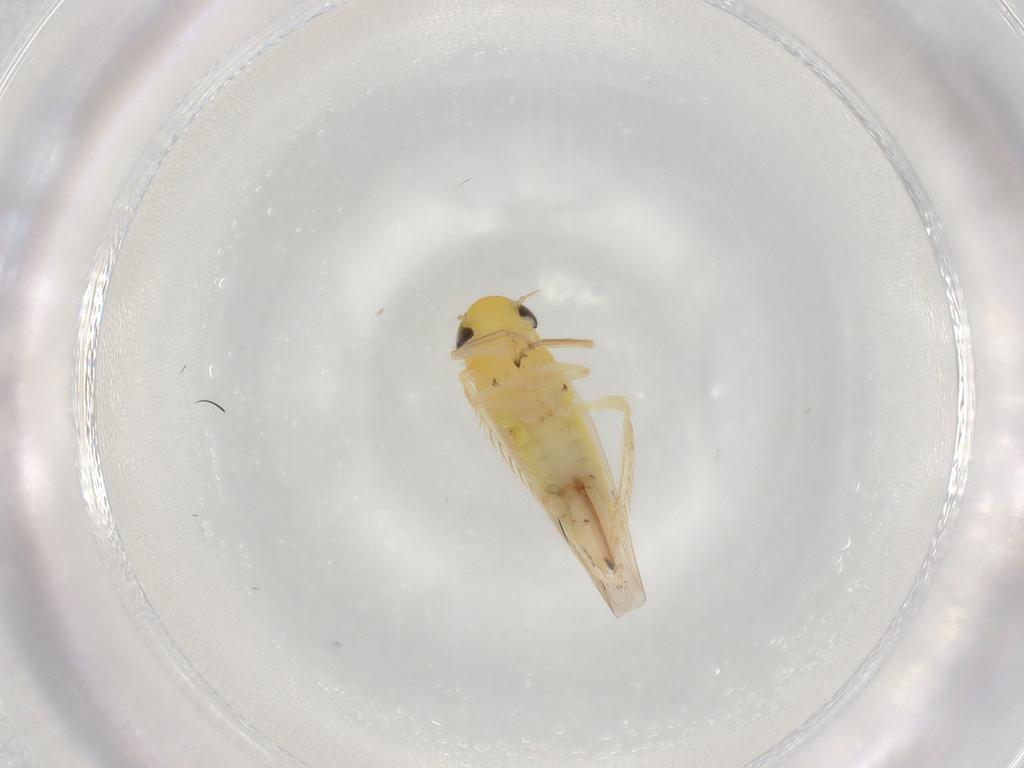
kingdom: Animalia
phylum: Arthropoda
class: Insecta
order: Hemiptera
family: Cicadellidae
